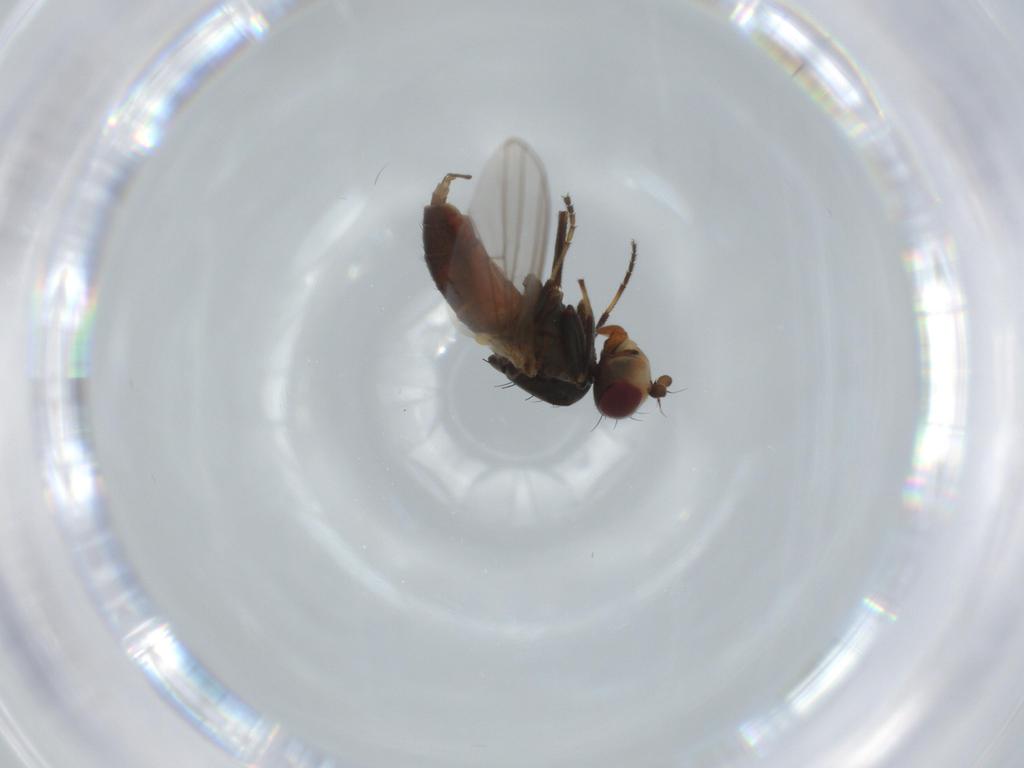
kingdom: Animalia
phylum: Arthropoda
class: Insecta
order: Diptera
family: Sciaridae
